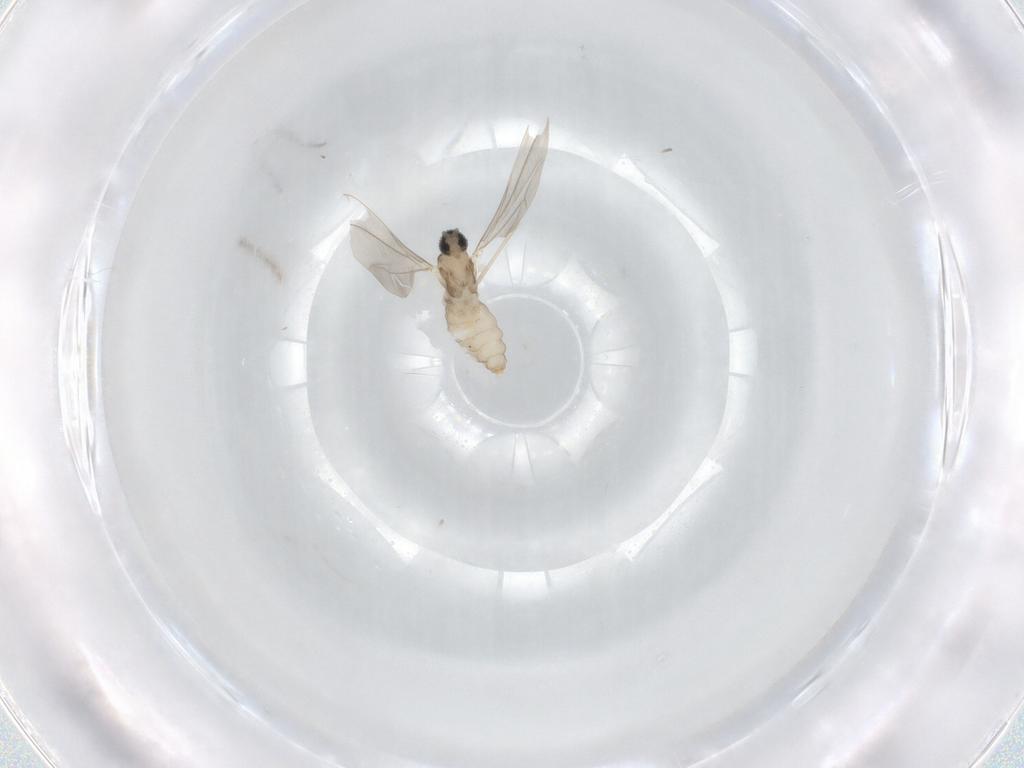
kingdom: Animalia
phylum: Arthropoda
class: Insecta
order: Diptera
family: Cecidomyiidae
